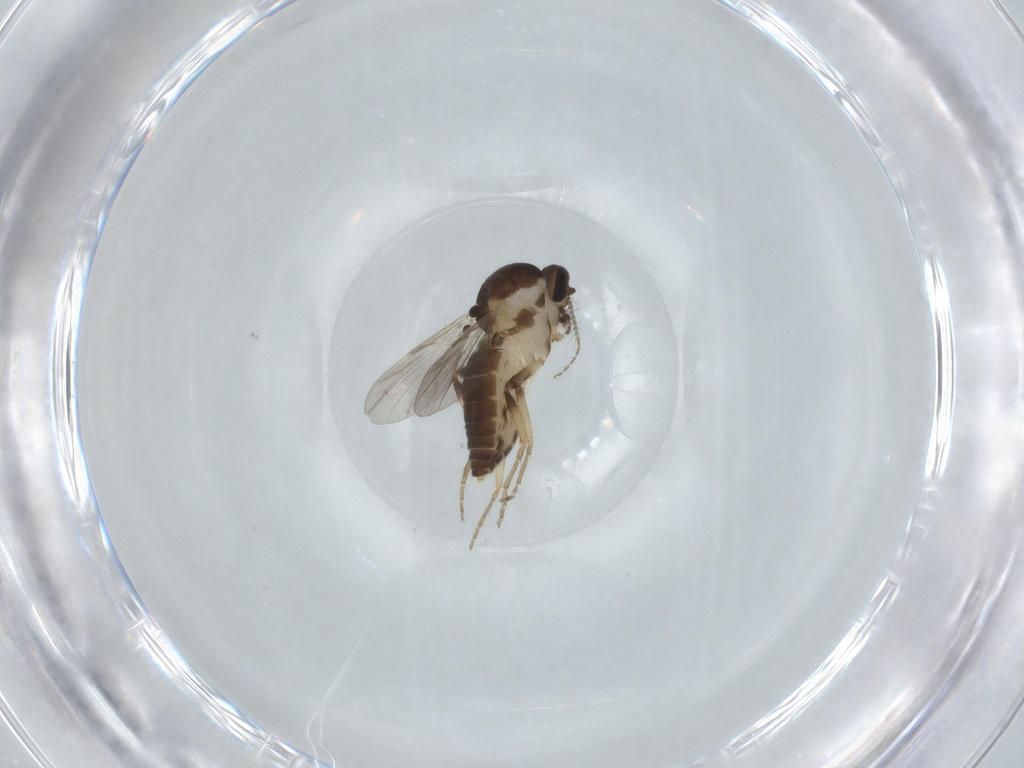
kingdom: Animalia
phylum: Arthropoda
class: Insecta
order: Diptera
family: Ceratopogonidae
